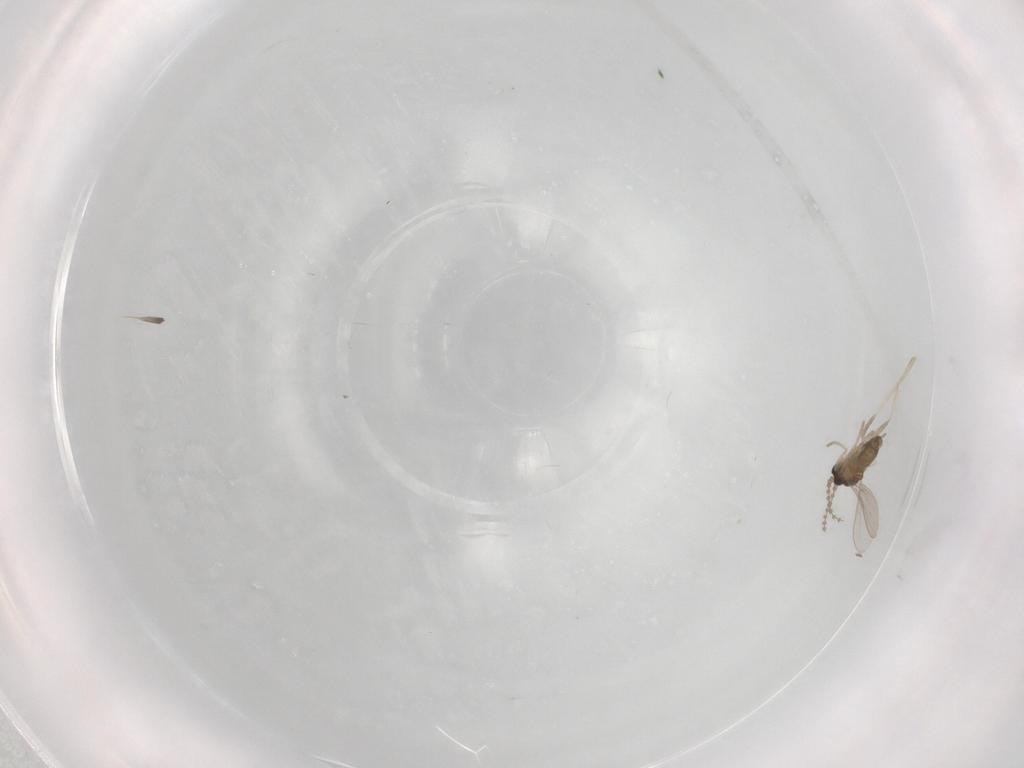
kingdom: Animalia
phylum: Arthropoda
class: Insecta
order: Diptera
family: Cecidomyiidae
